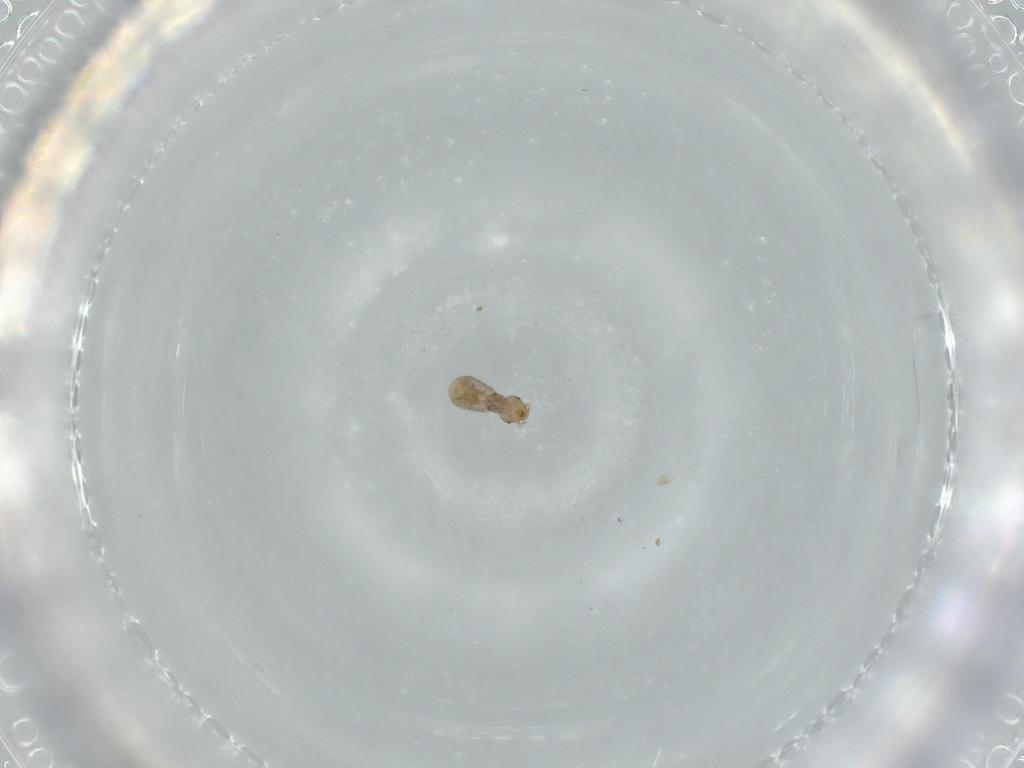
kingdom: Animalia
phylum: Arthropoda
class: Insecta
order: Psocodea
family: Liposcelididae
